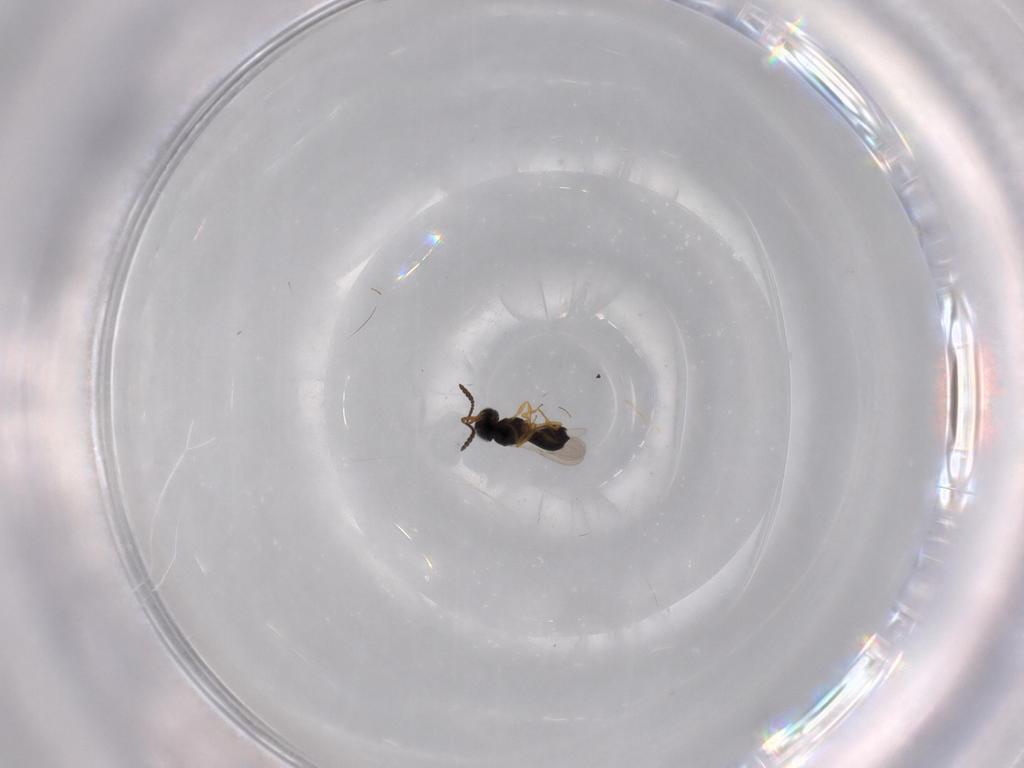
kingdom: Animalia
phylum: Arthropoda
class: Insecta
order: Hymenoptera
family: Scelionidae
